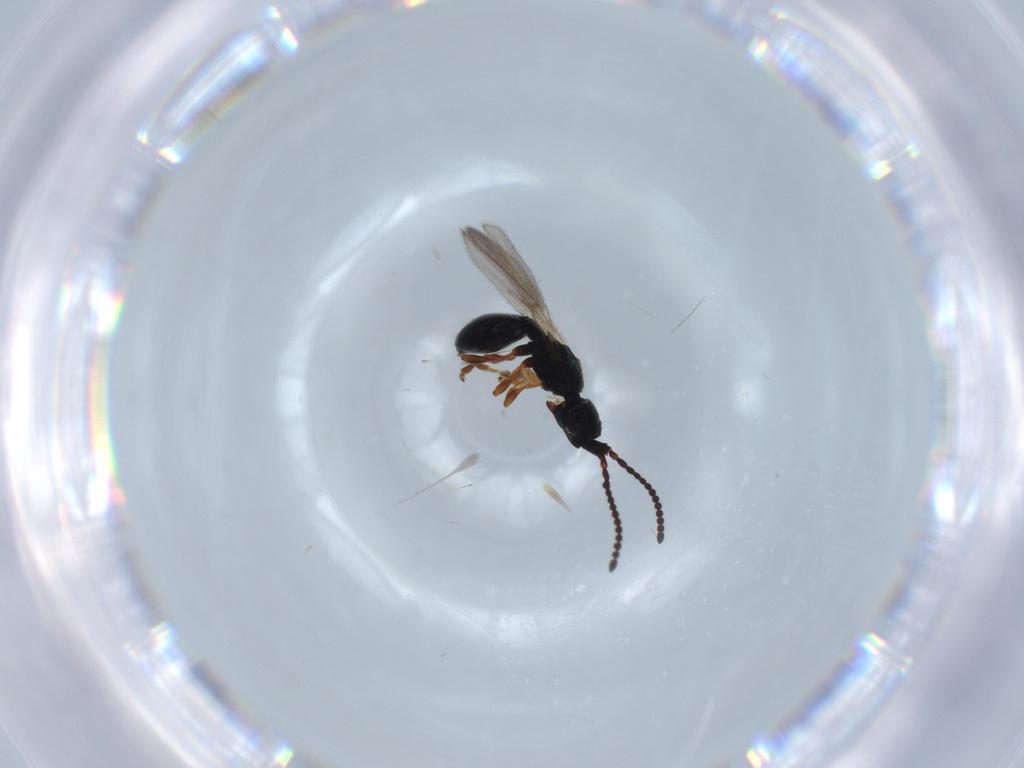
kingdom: Animalia
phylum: Arthropoda
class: Insecta
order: Hymenoptera
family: Diapriidae
